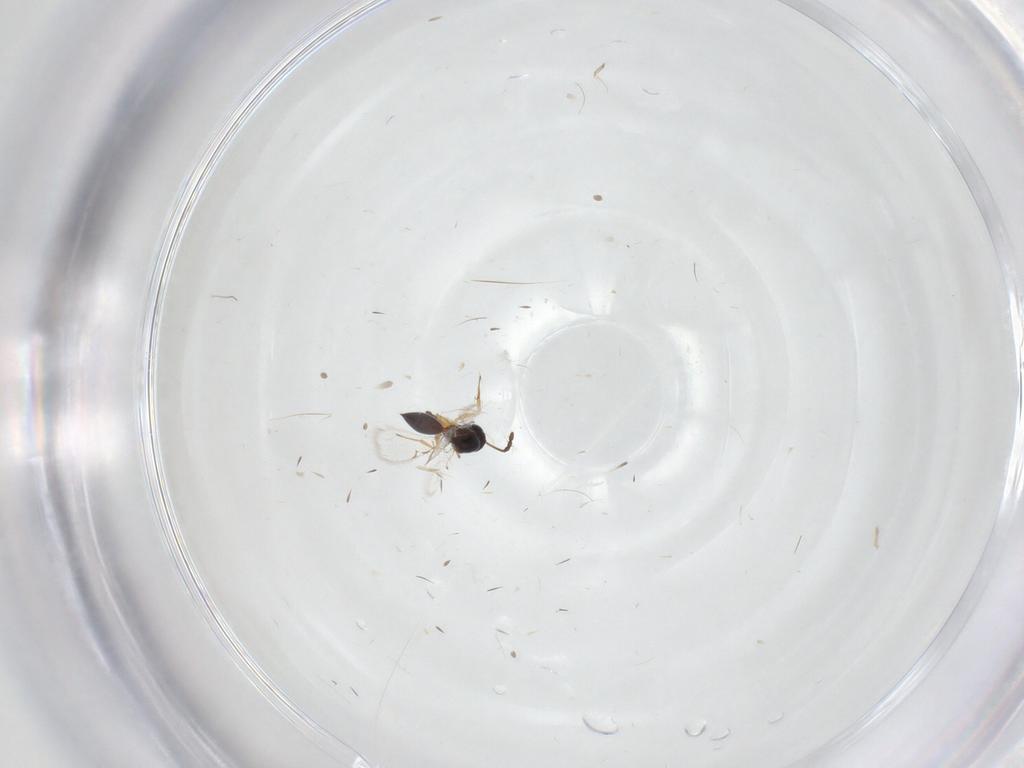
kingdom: Animalia
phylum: Arthropoda
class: Insecta
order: Hymenoptera
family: Figitidae
